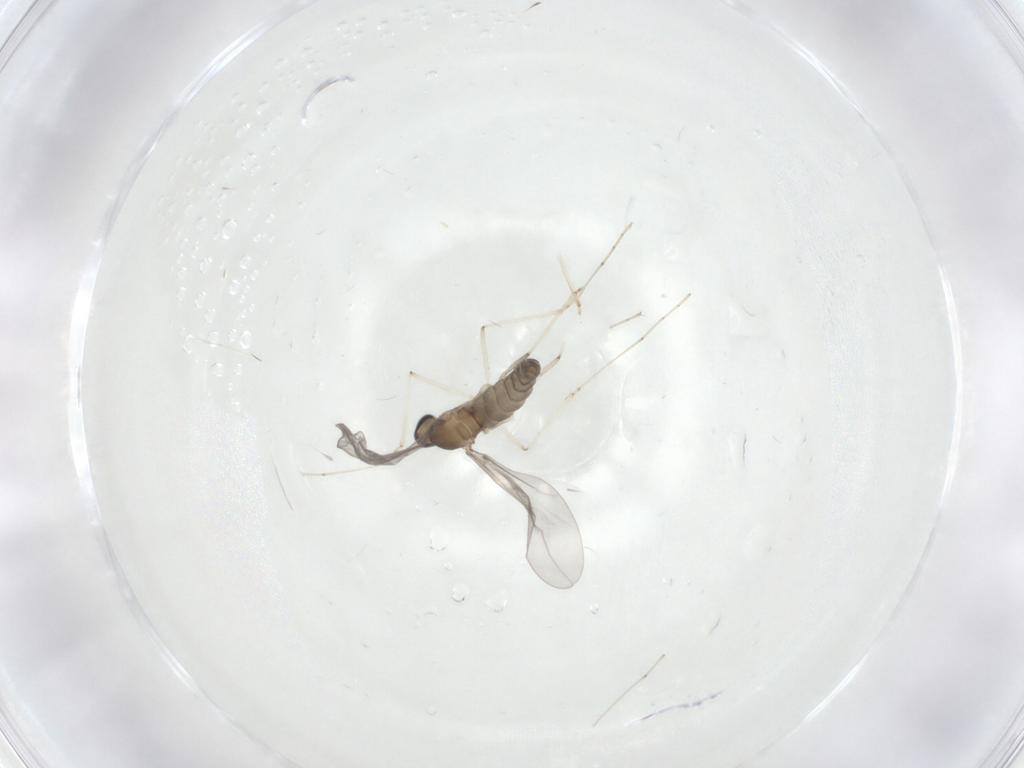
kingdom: Animalia
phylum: Arthropoda
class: Insecta
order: Diptera
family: Cecidomyiidae
